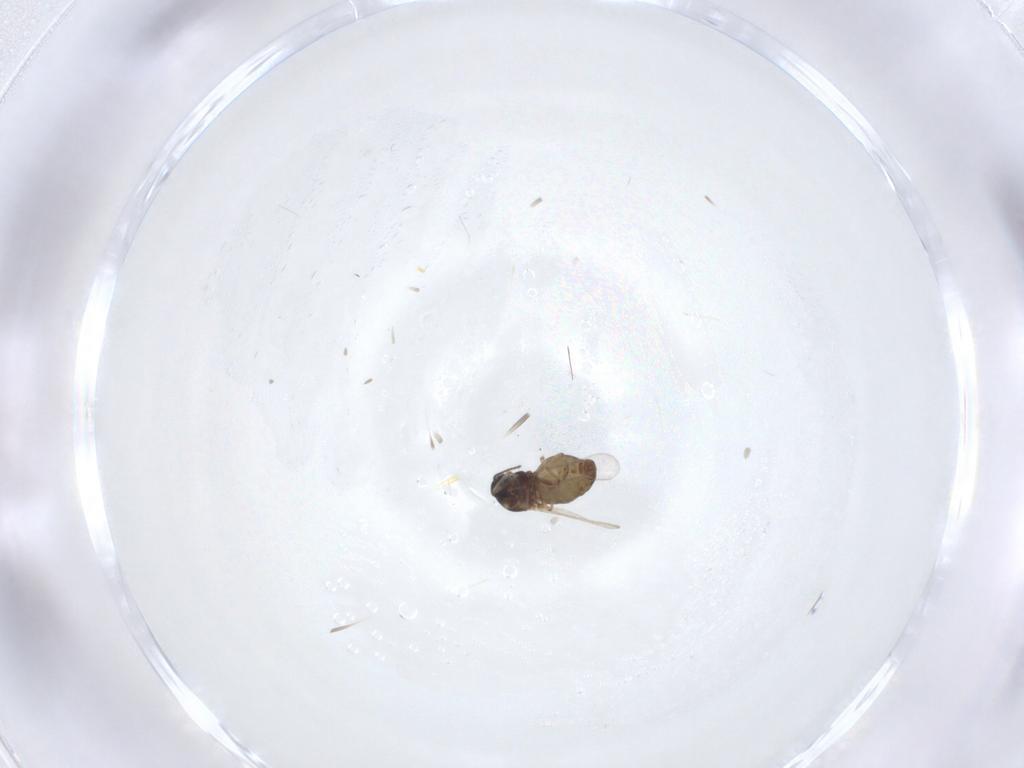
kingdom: Animalia
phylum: Arthropoda
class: Insecta
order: Diptera
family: Ceratopogonidae
